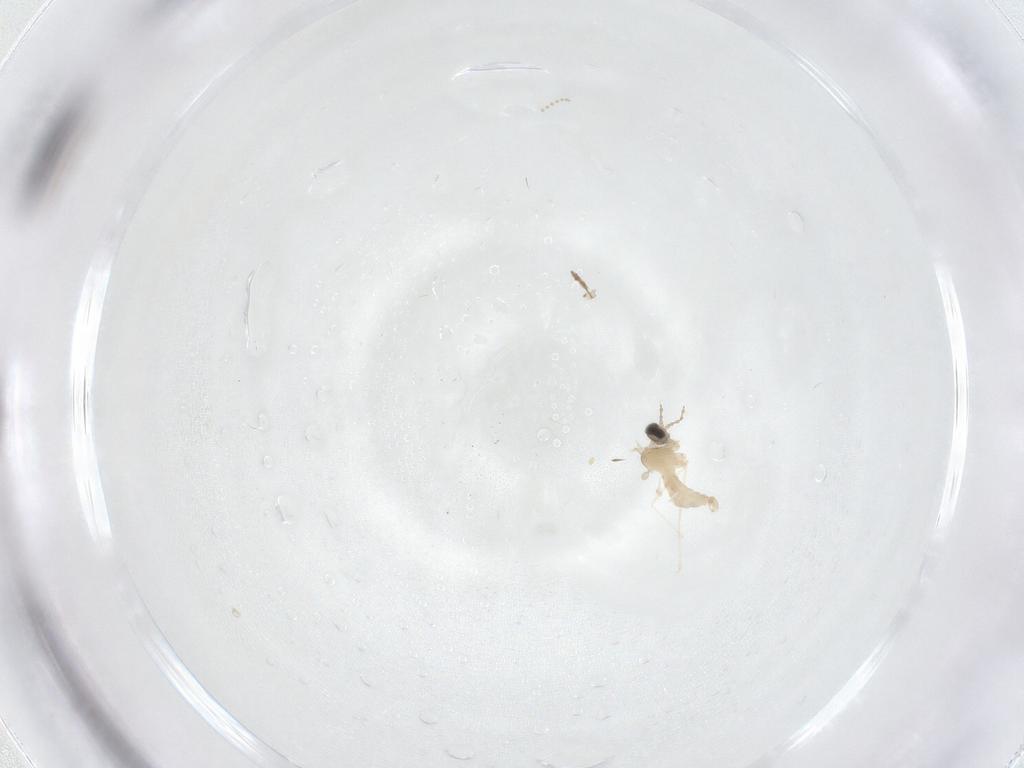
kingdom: Animalia
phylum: Arthropoda
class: Insecta
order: Diptera
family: Cecidomyiidae
